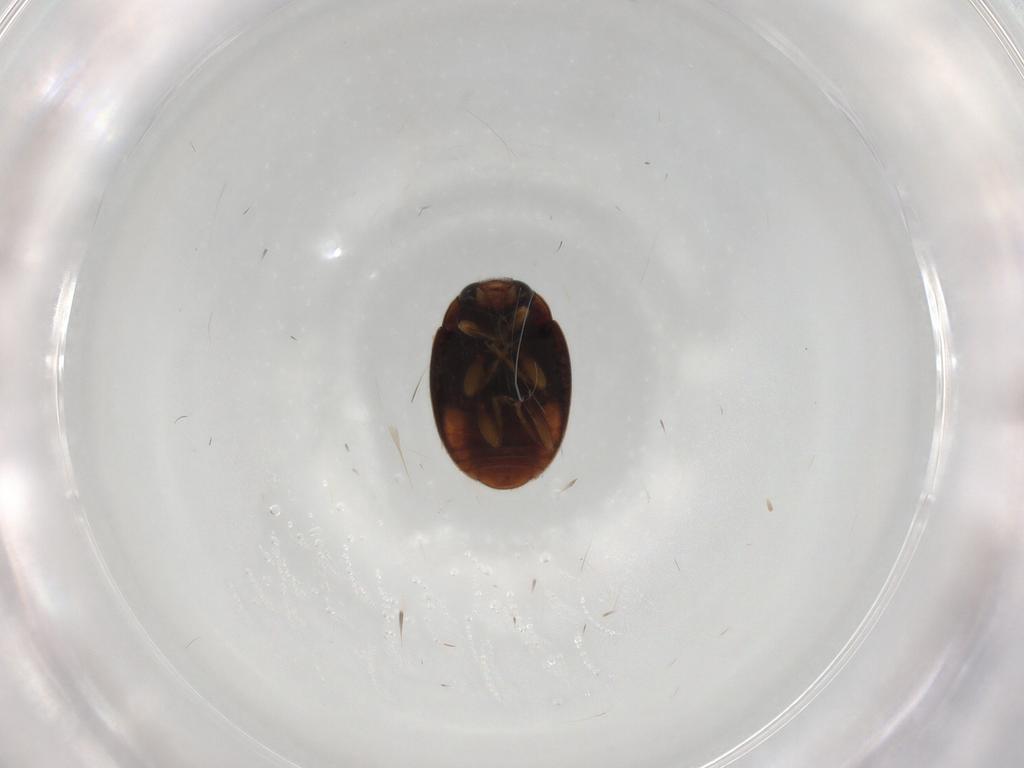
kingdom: Animalia
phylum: Arthropoda
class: Insecta
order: Coleoptera
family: Coccinellidae
